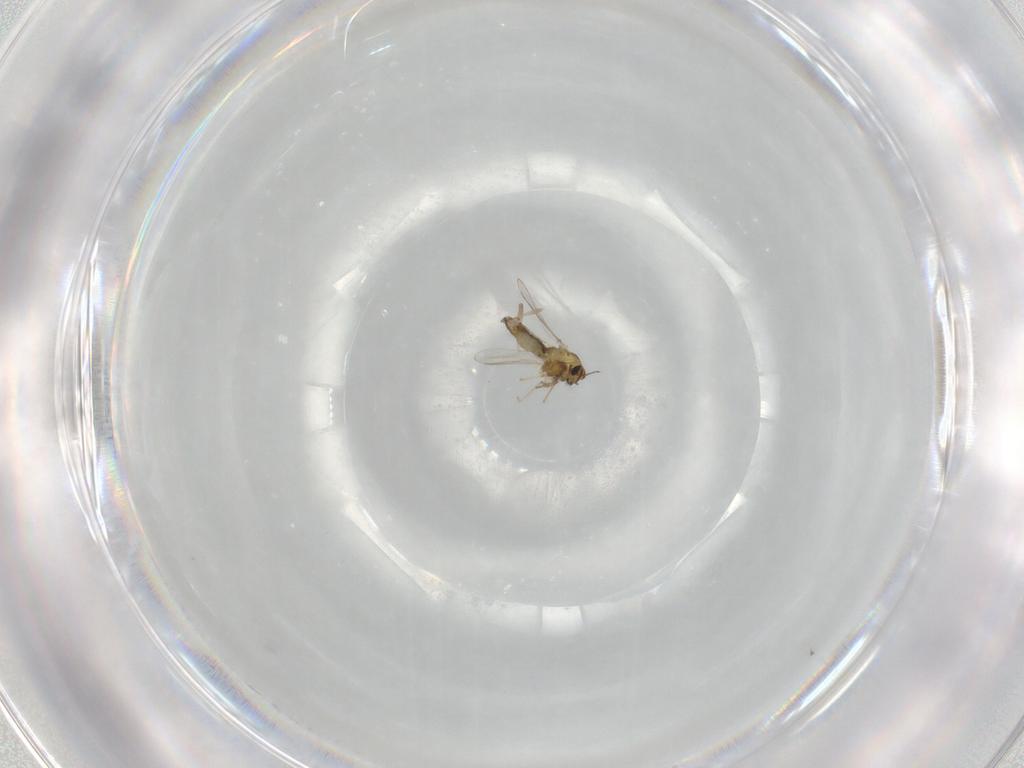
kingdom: Animalia
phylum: Arthropoda
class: Insecta
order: Diptera
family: Chironomidae
